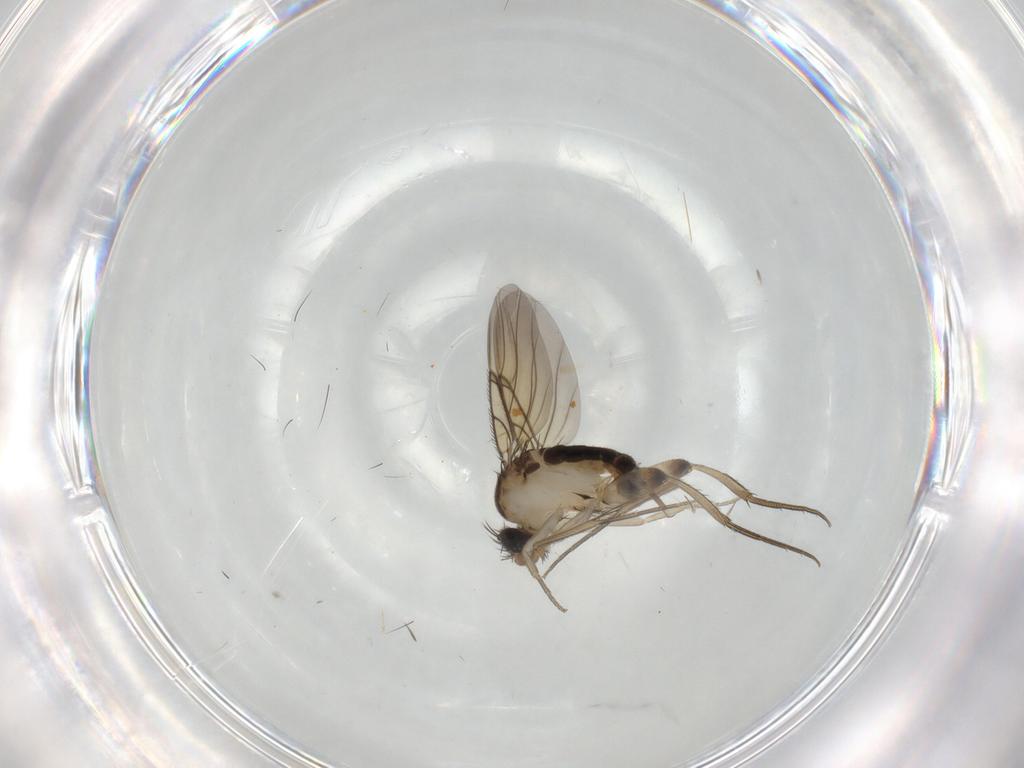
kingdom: Animalia
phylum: Arthropoda
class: Insecta
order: Diptera
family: Phoridae
